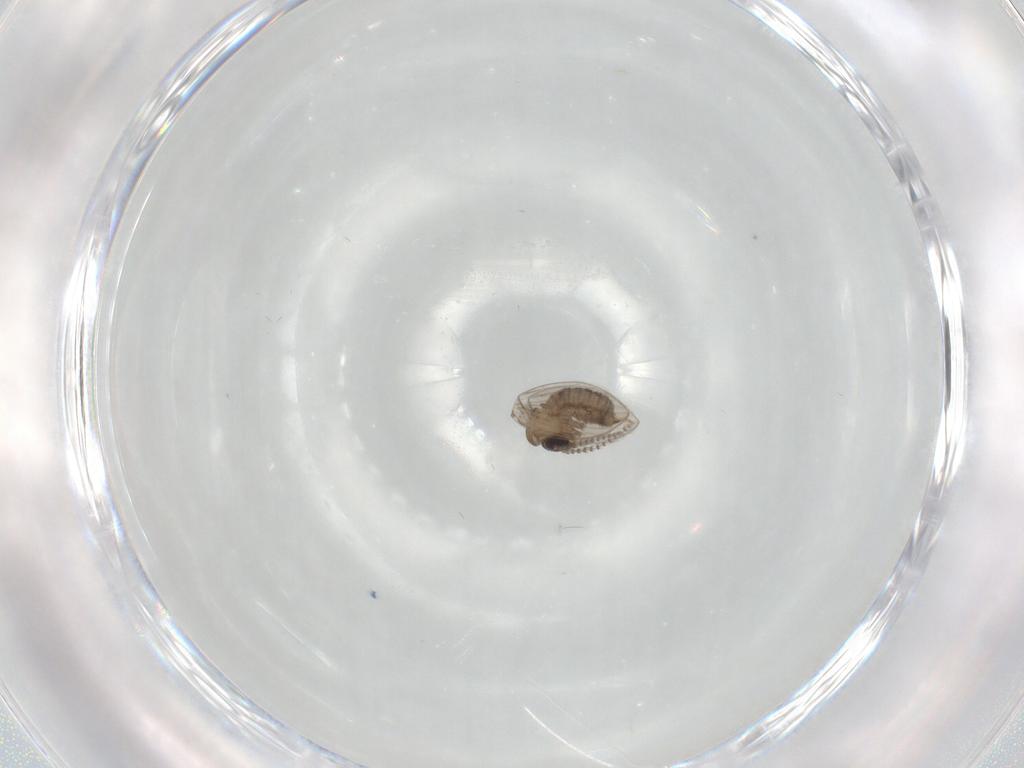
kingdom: Animalia
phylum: Arthropoda
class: Insecta
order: Diptera
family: Psychodidae
